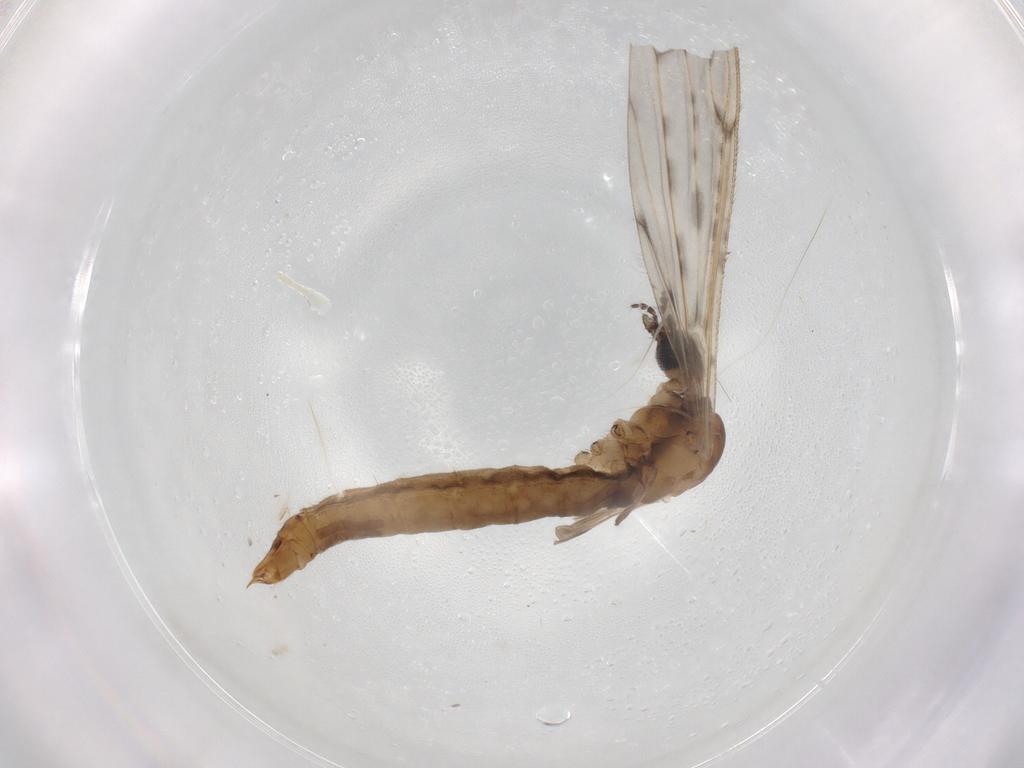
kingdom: Animalia
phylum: Arthropoda
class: Insecta
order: Diptera
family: Limoniidae
